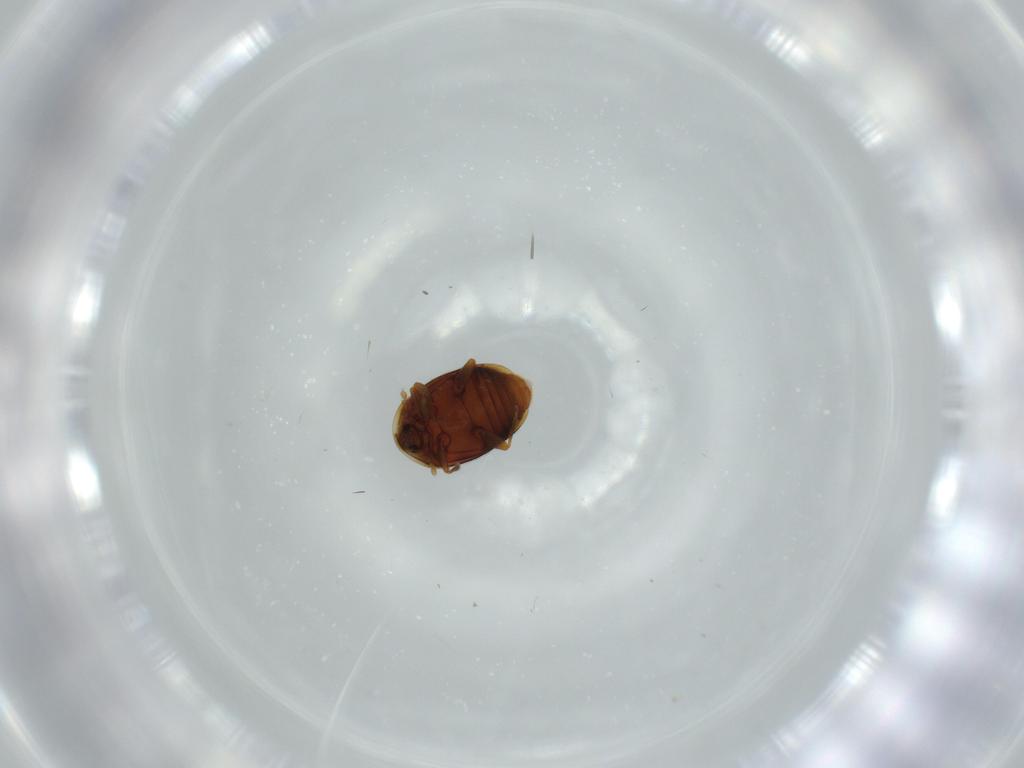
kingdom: Animalia
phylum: Arthropoda
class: Insecta
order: Coleoptera
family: Corylophidae
